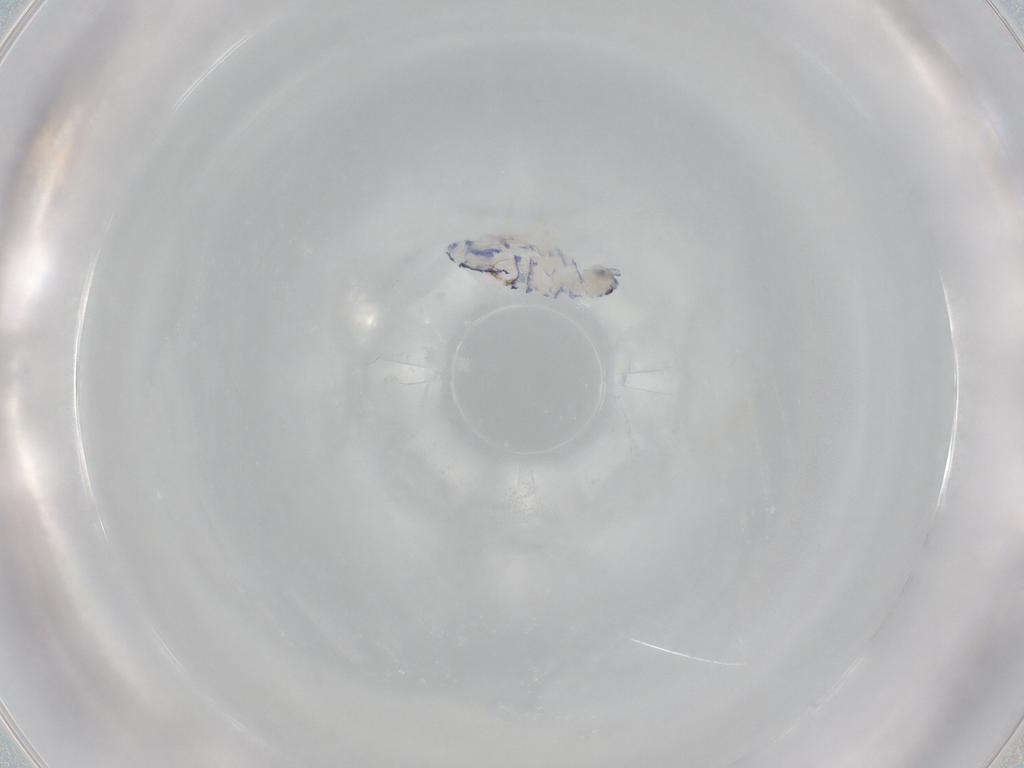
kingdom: Animalia
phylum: Arthropoda
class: Collembola
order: Entomobryomorpha
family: Entomobryidae
